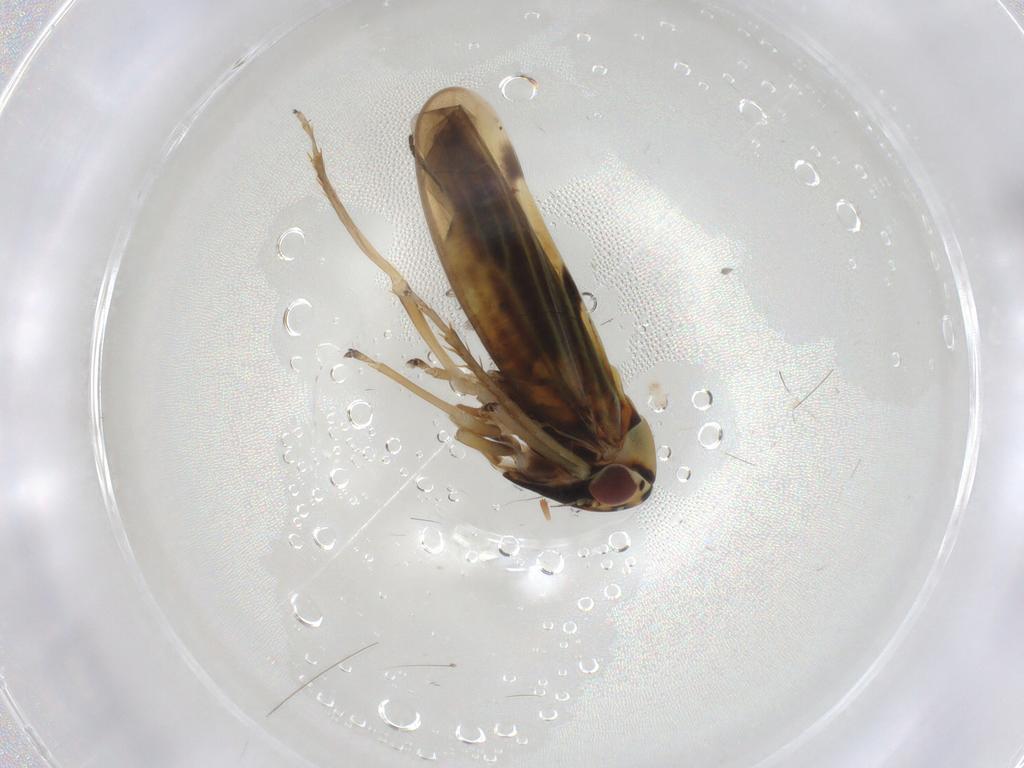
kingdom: Animalia
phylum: Arthropoda
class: Insecta
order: Hemiptera
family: Cicadellidae
